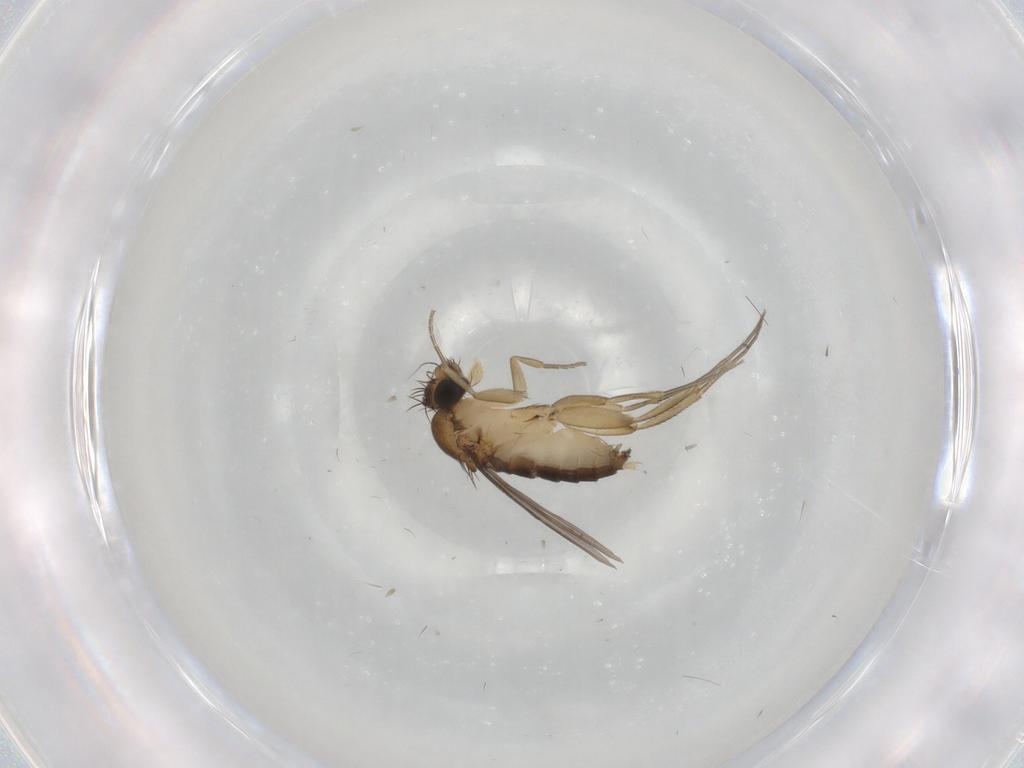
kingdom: Animalia
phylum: Arthropoda
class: Insecta
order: Diptera
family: Phoridae
